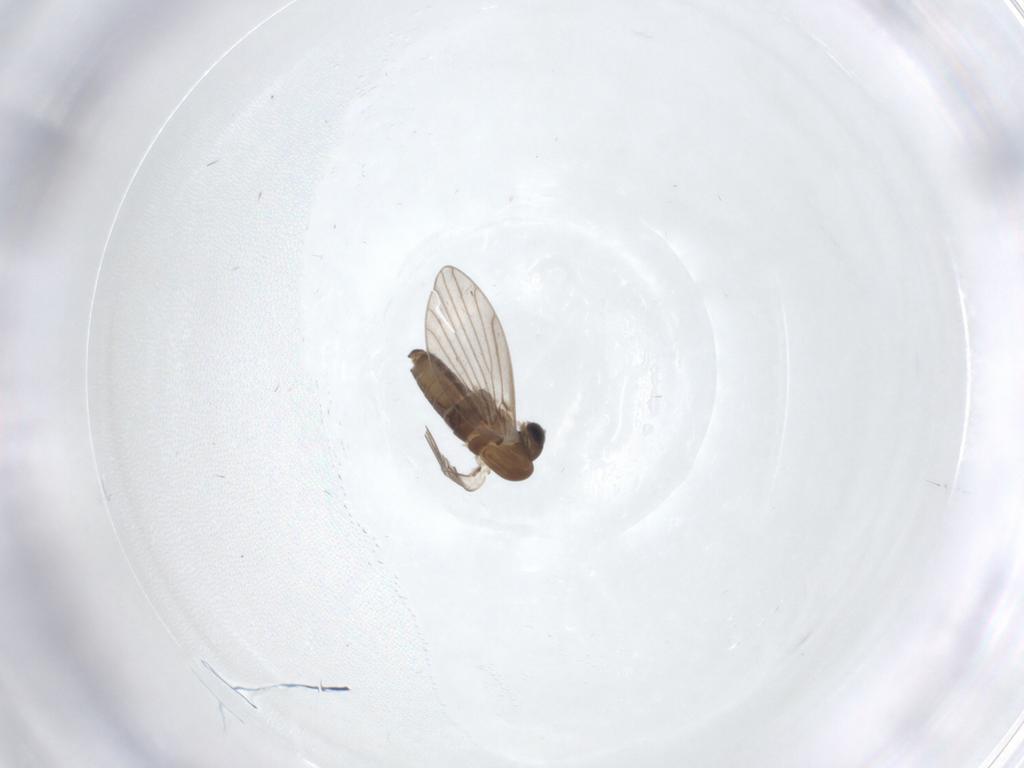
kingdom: Animalia
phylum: Arthropoda
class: Insecta
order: Diptera
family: Psychodidae
